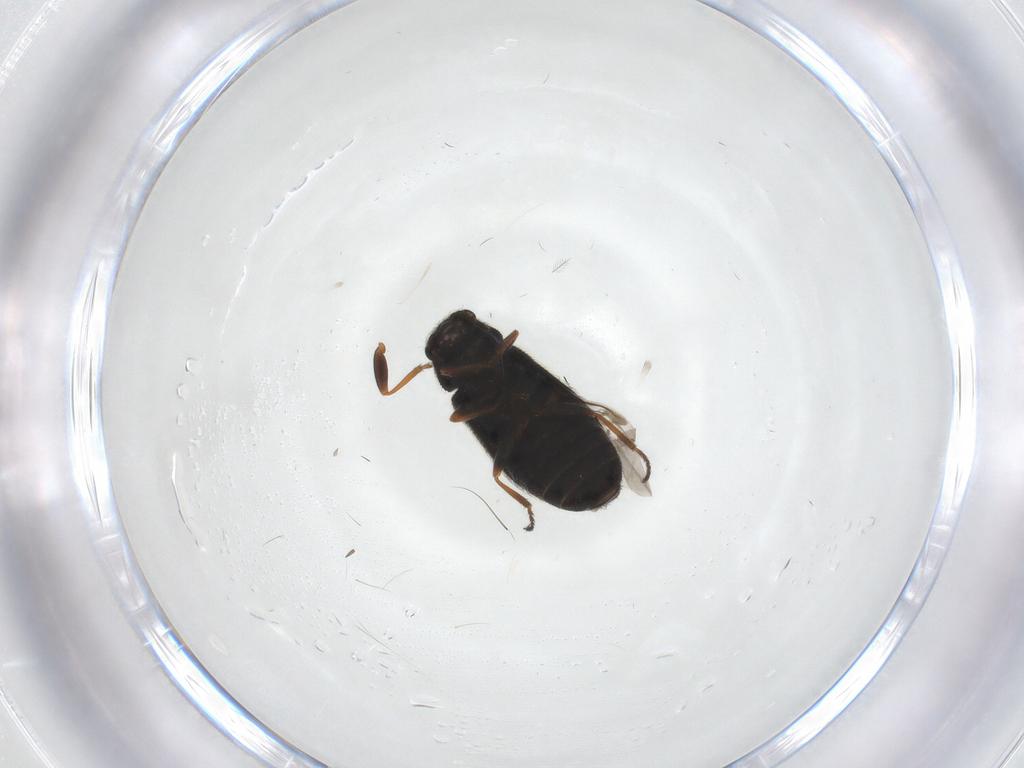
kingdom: Animalia
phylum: Arthropoda
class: Insecta
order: Coleoptera
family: Melyridae
